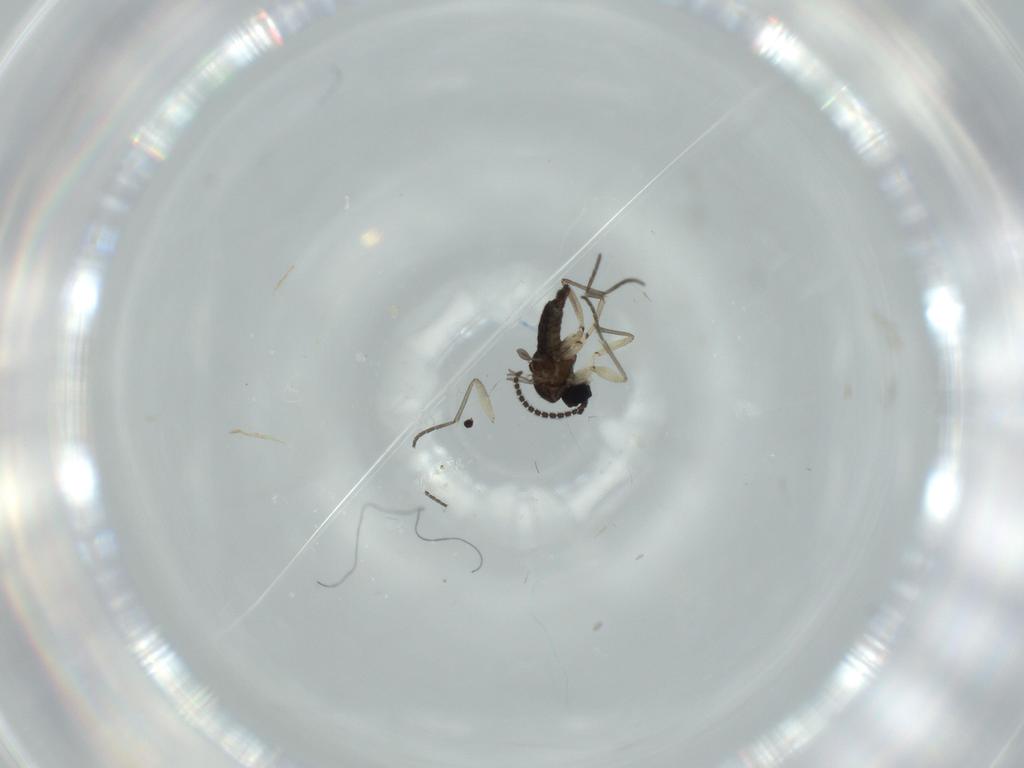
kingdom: Animalia
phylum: Arthropoda
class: Insecta
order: Diptera
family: Sciaridae
